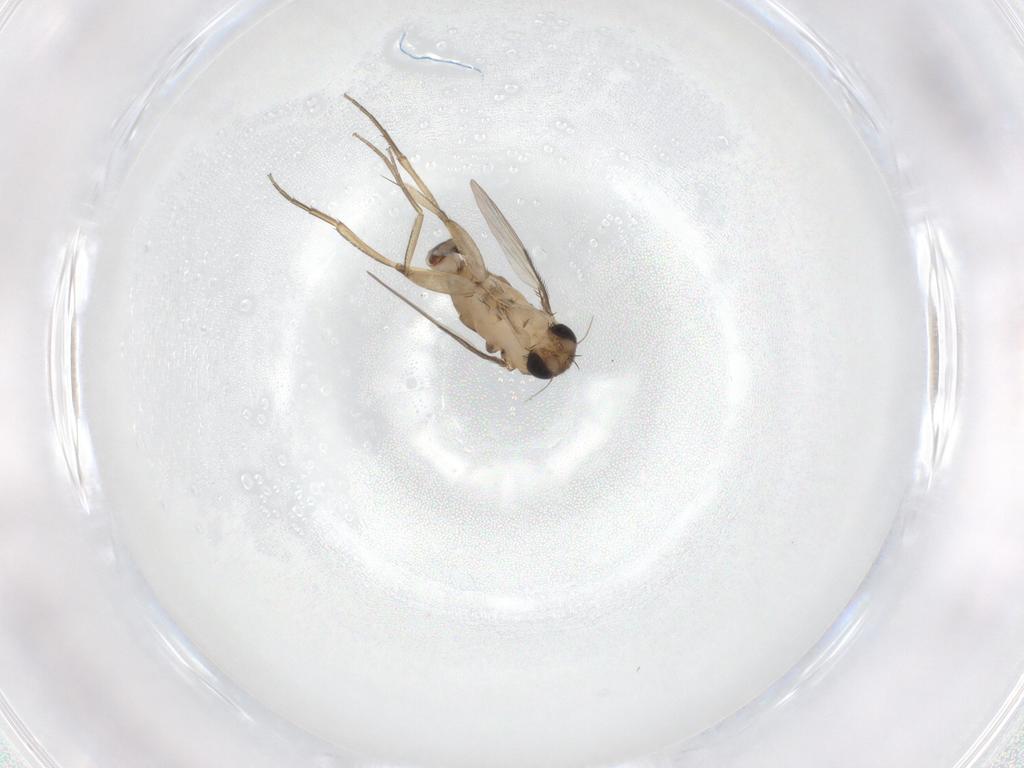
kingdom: Animalia
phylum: Arthropoda
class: Insecta
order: Diptera
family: Phoridae
